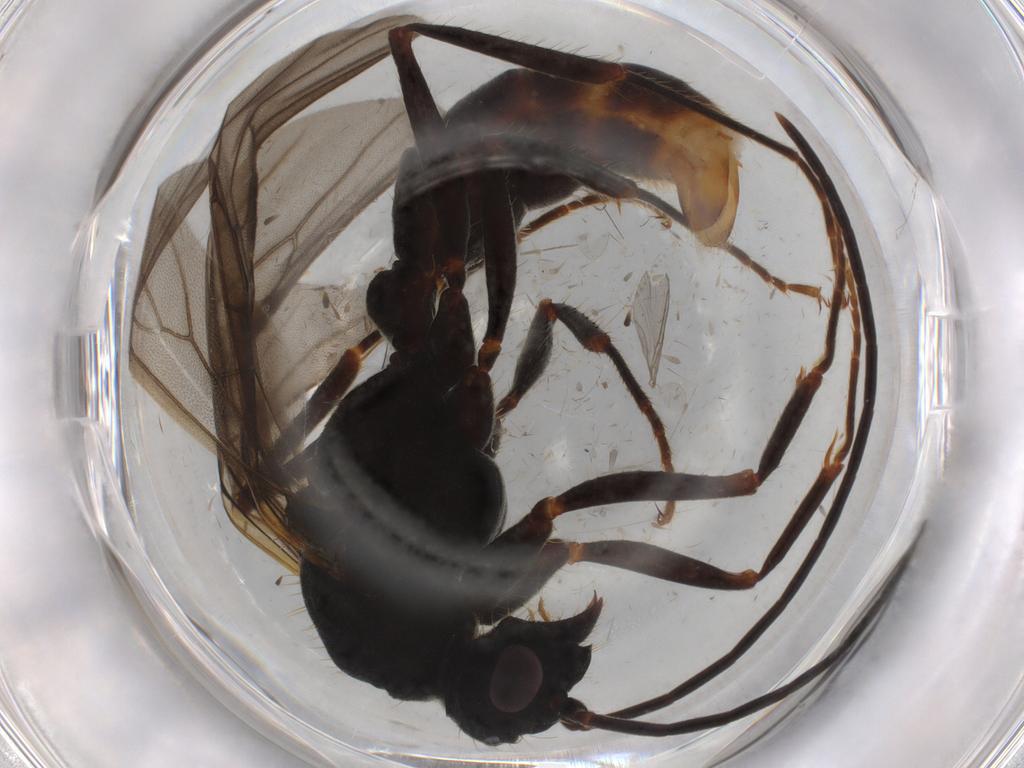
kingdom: Animalia
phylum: Arthropoda
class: Insecta
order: Hymenoptera
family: Formicidae
